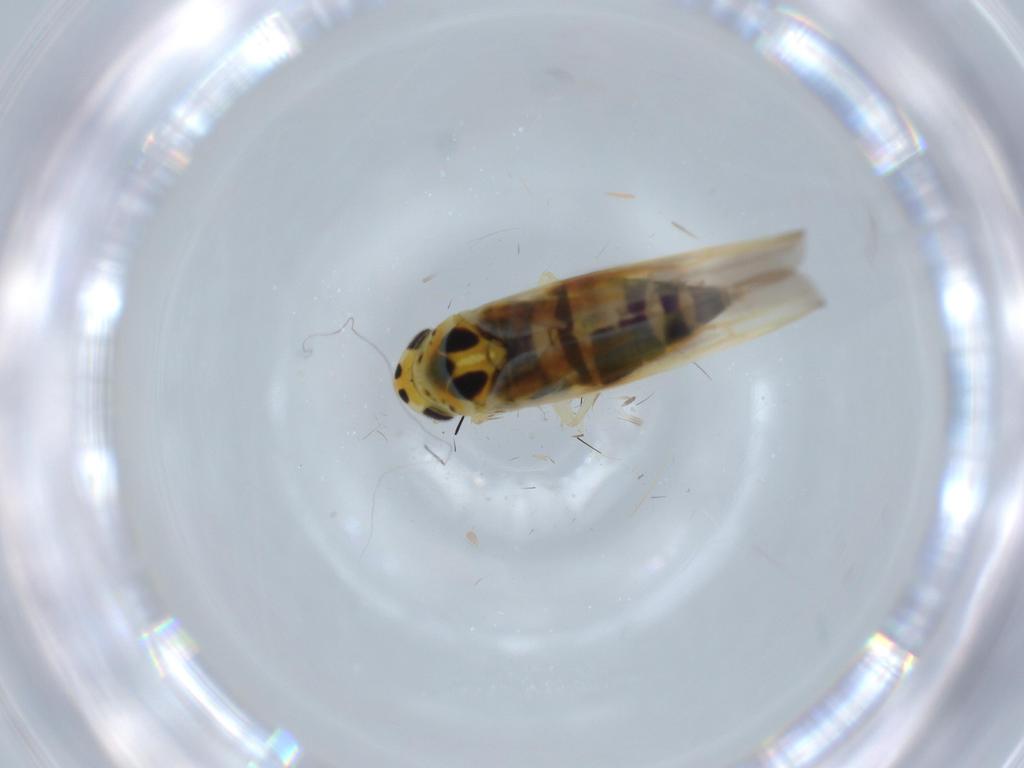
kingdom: Animalia
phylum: Arthropoda
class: Insecta
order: Hemiptera
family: Cicadellidae
